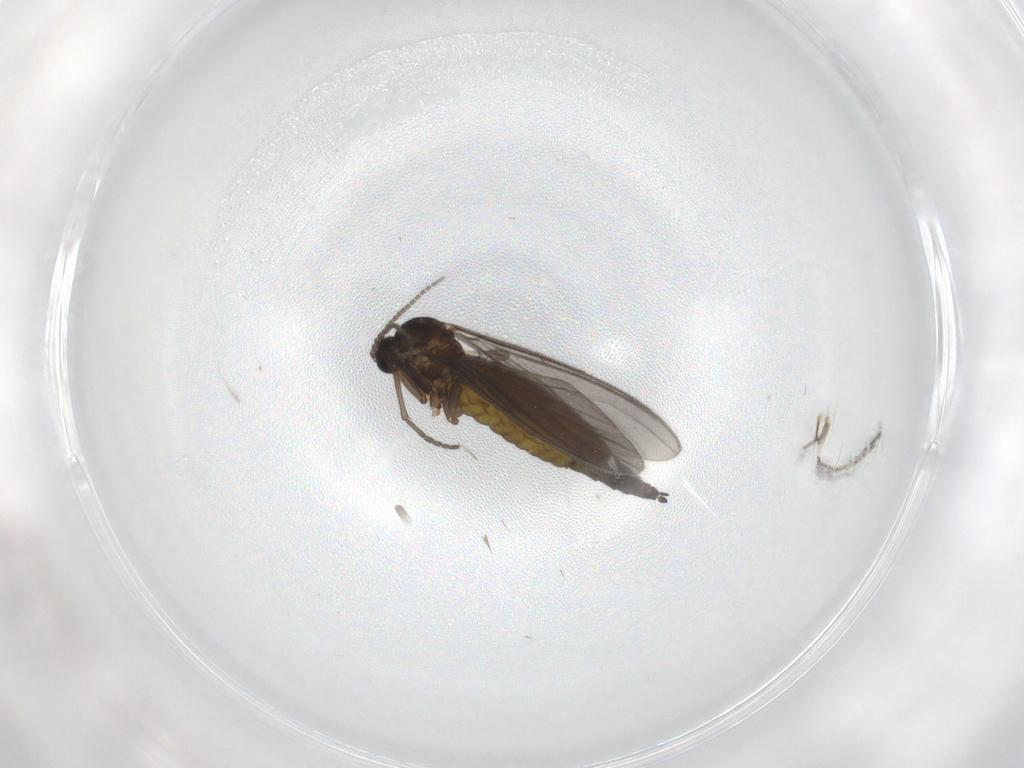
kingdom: Animalia
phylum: Arthropoda
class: Insecta
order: Diptera
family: Sciaridae
